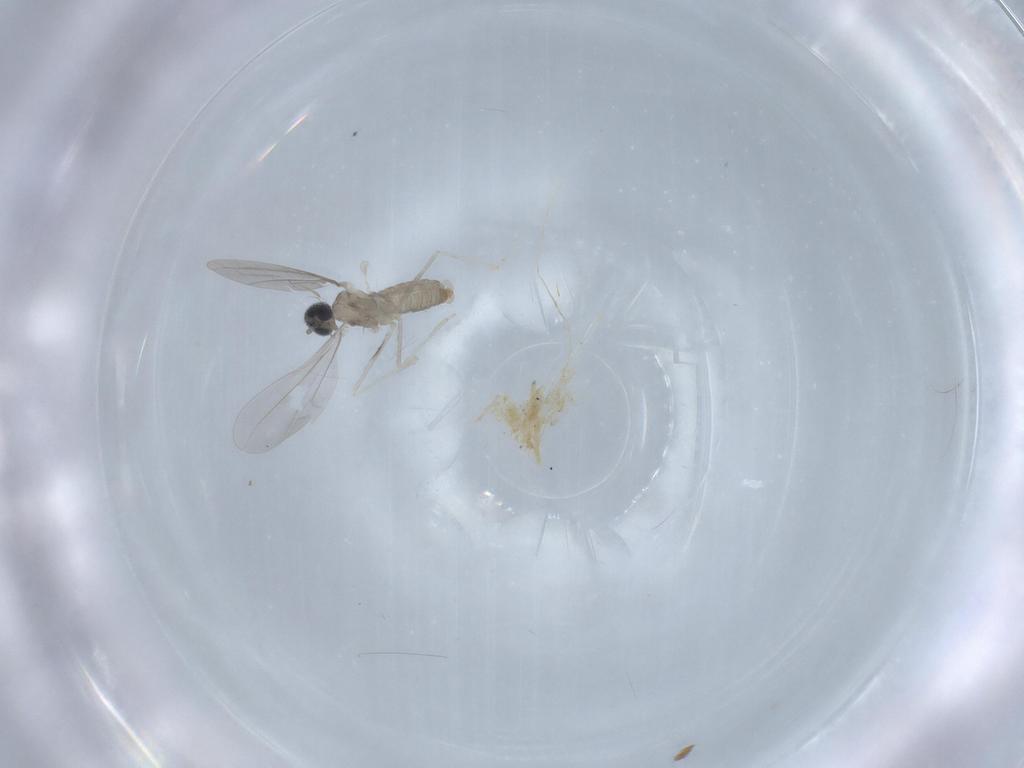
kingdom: Animalia
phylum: Arthropoda
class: Insecta
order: Diptera
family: Cecidomyiidae
